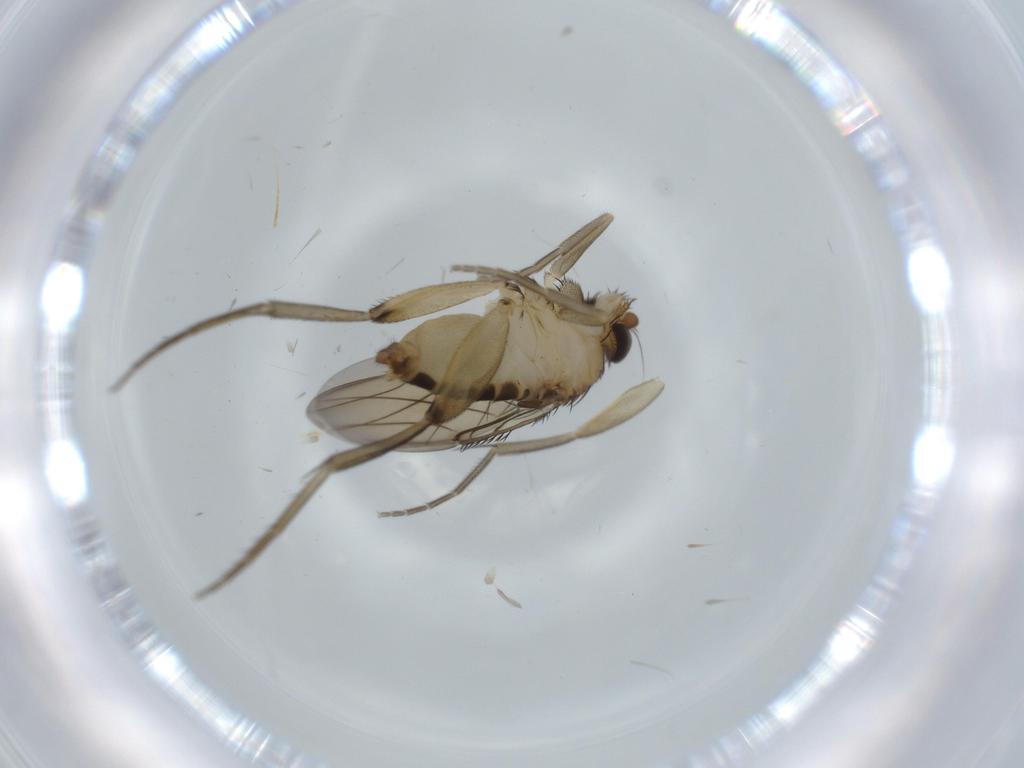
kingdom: Animalia
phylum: Arthropoda
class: Insecta
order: Diptera
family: Phoridae
